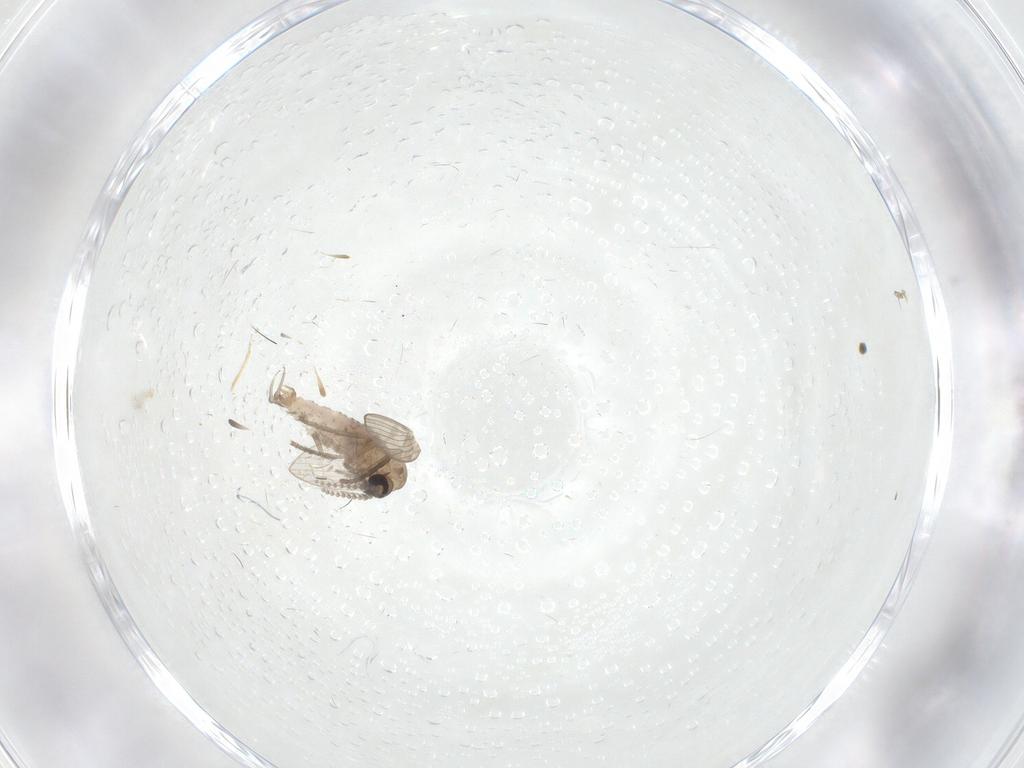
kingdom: Animalia
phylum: Arthropoda
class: Insecta
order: Diptera
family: Psychodidae
